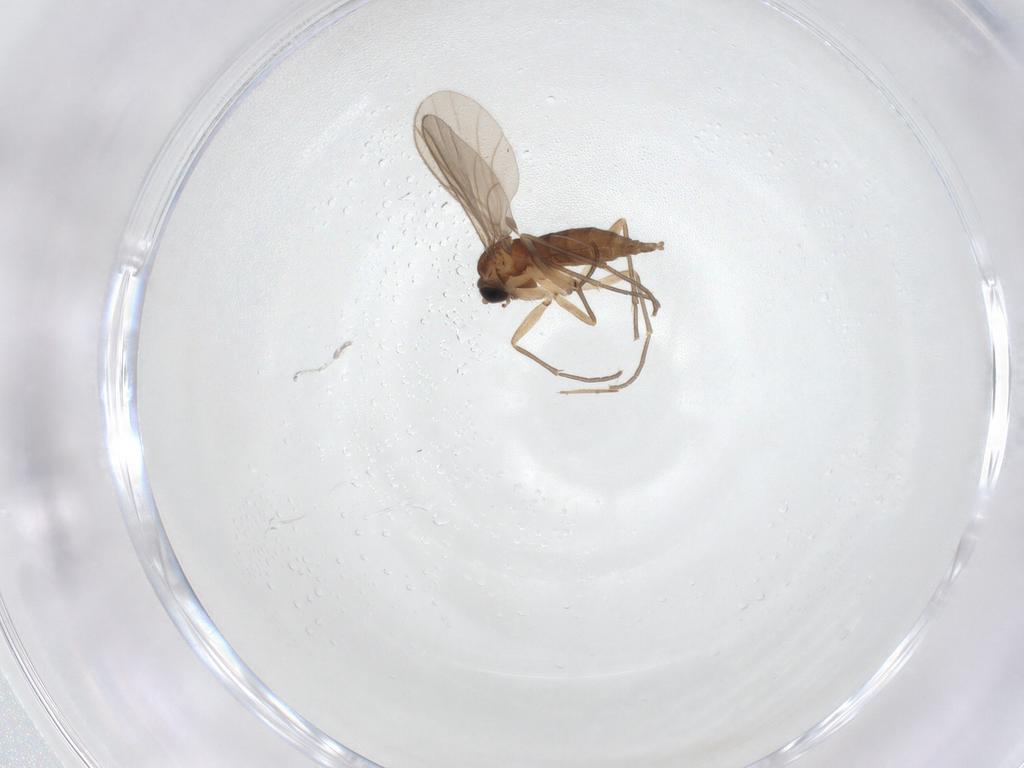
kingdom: Animalia
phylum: Arthropoda
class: Insecta
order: Diptera
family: Sciaridae
